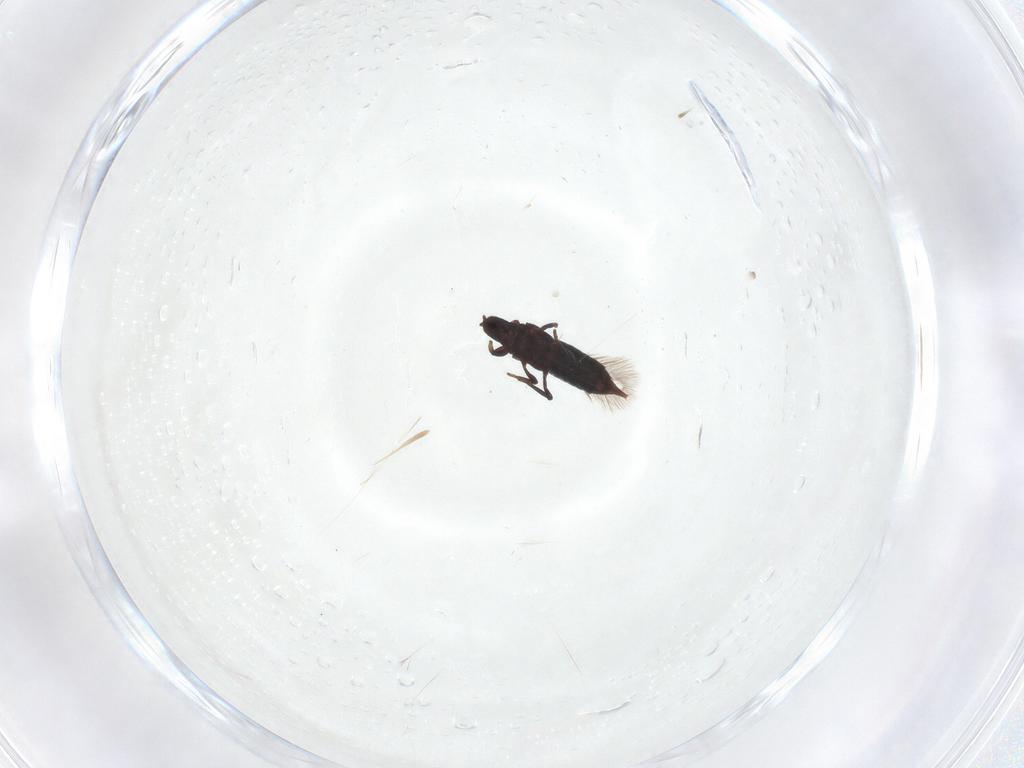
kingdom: Animalia
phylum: Arthropoda
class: Insecta
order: Thysanoptera
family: Phlaeothripidae
